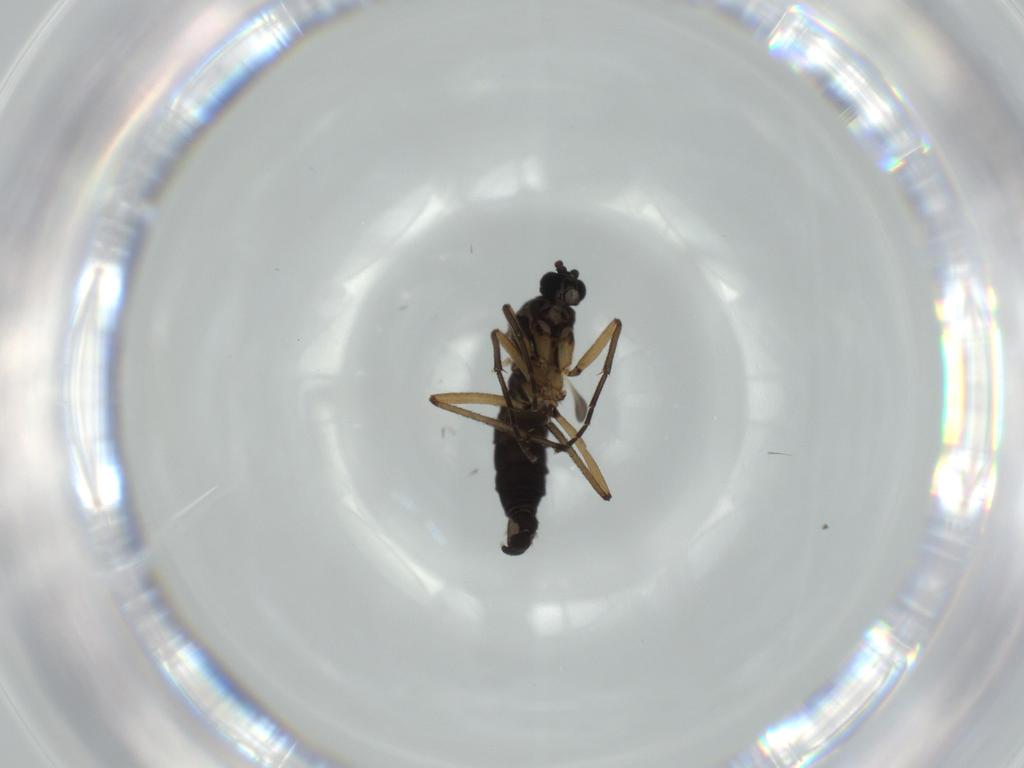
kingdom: Animalia
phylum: Arthropoda
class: Insecta
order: Diptera
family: Sciaridae
